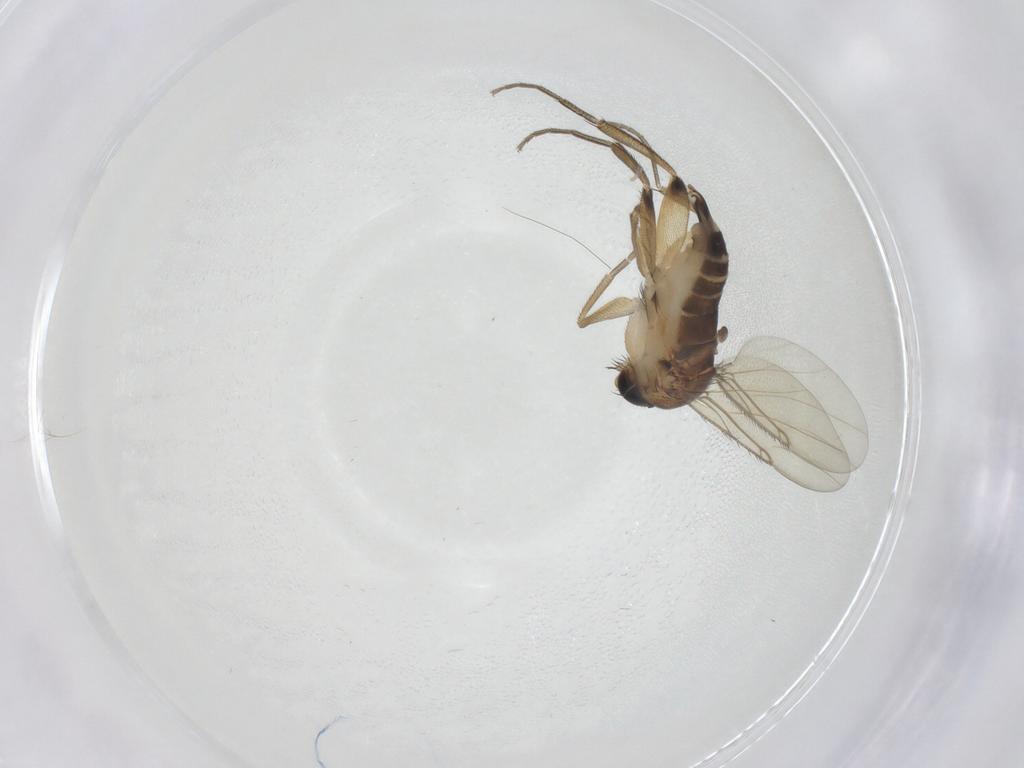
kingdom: Animalia
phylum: Arthropoda
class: Insecta
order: Diptera
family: Phoridae
